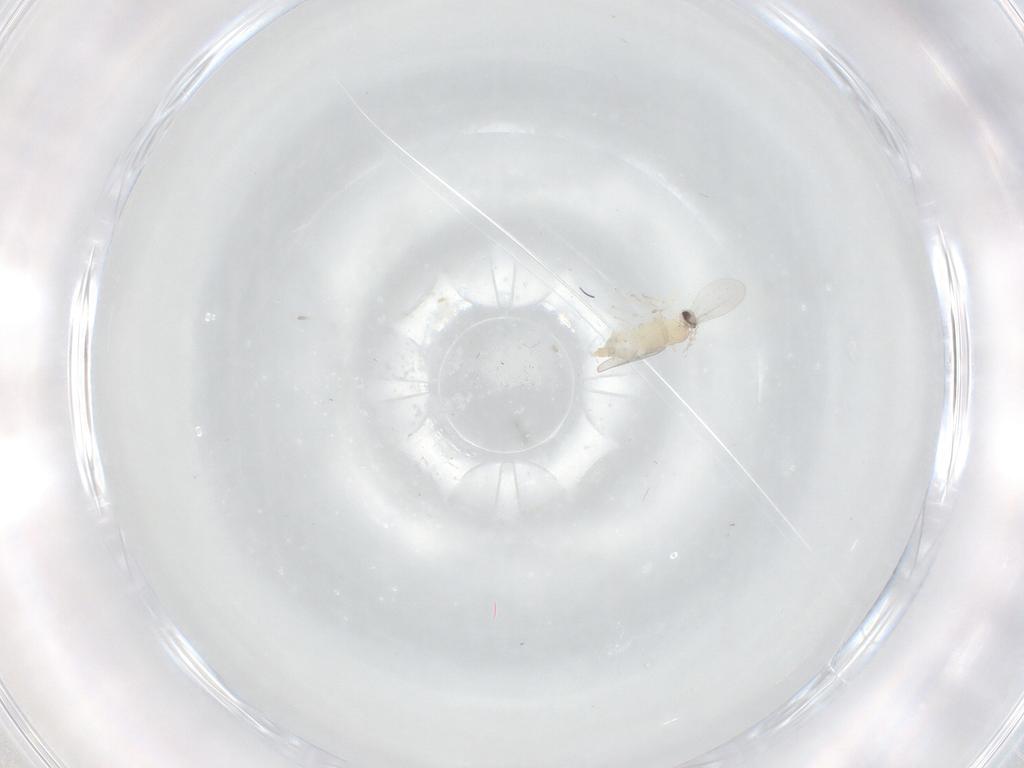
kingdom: Animalia
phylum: Arthropoda
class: Insecta
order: Diptera
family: Cecidomyiidae
